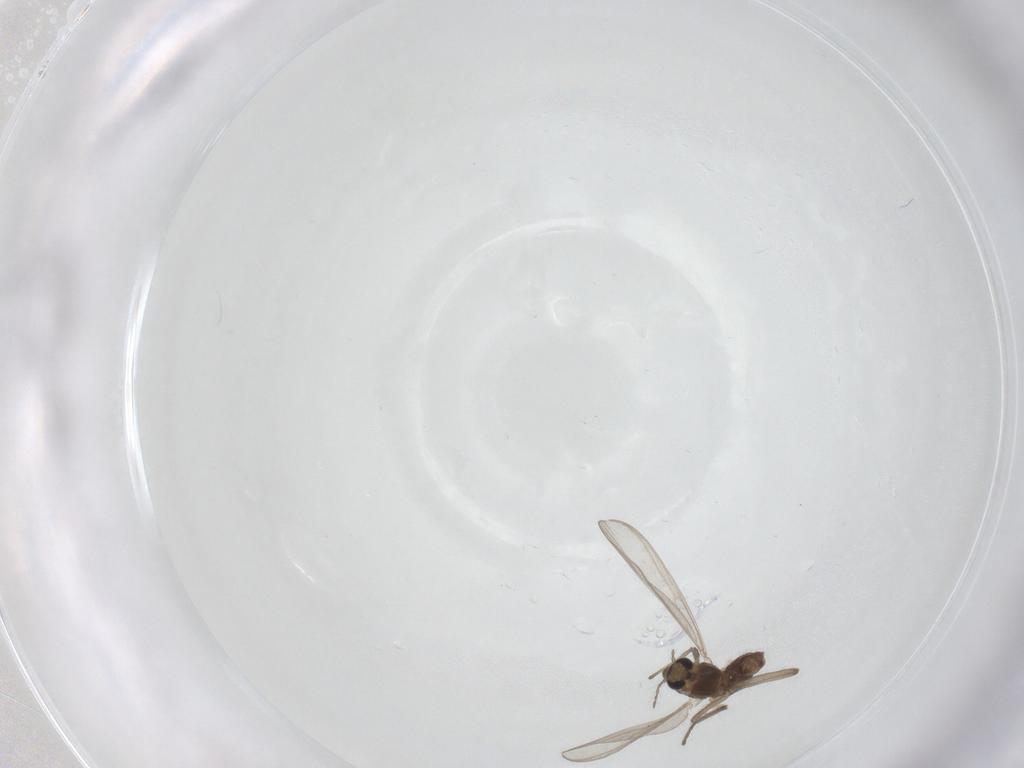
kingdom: Animalia
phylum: Arthropoda
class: Insecta
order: Diptera
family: Chironomidae
